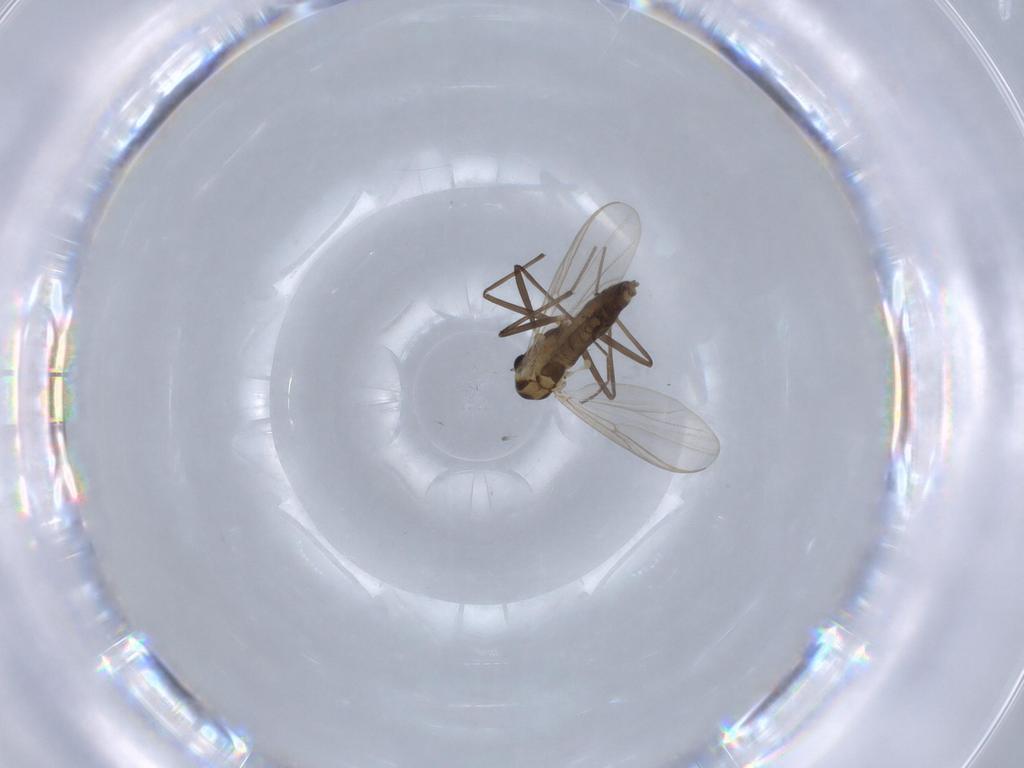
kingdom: Animalia
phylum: Arthropoda
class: Insecta
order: Diptera
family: Chironomidae
